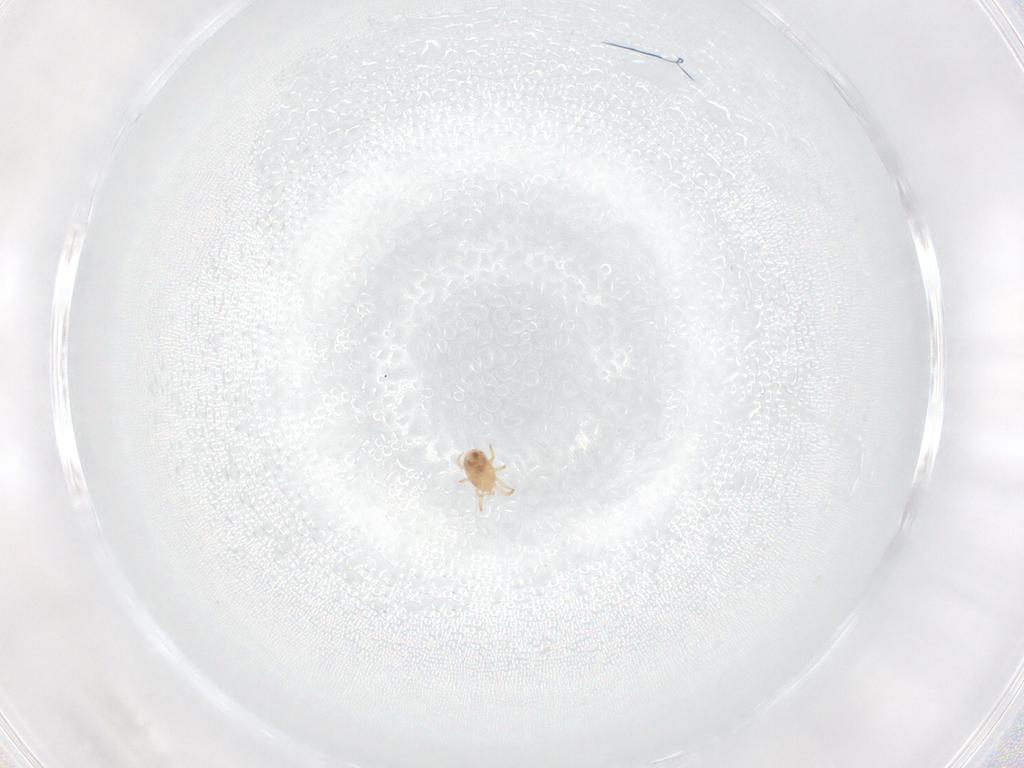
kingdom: Animalia
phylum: Arthropoda
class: Arachnida
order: Mesostigmata
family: Phytoseiidae
